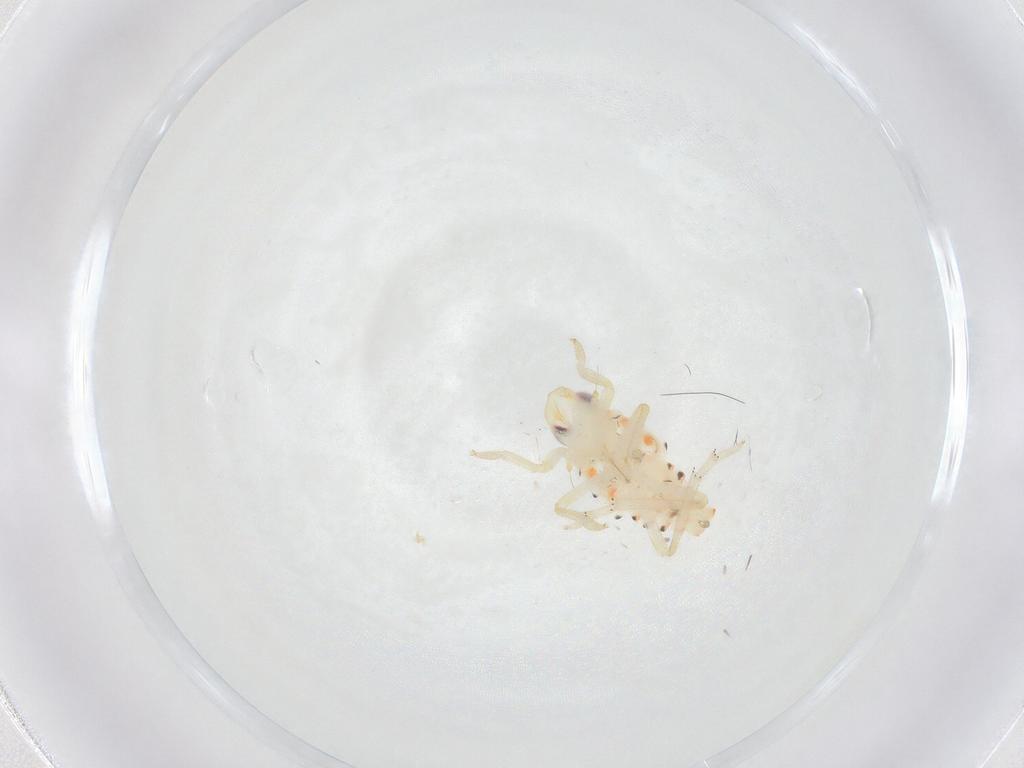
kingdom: Animalia
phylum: Arthropoda
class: Insecta
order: Hemiptera
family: Tropiduchidae
